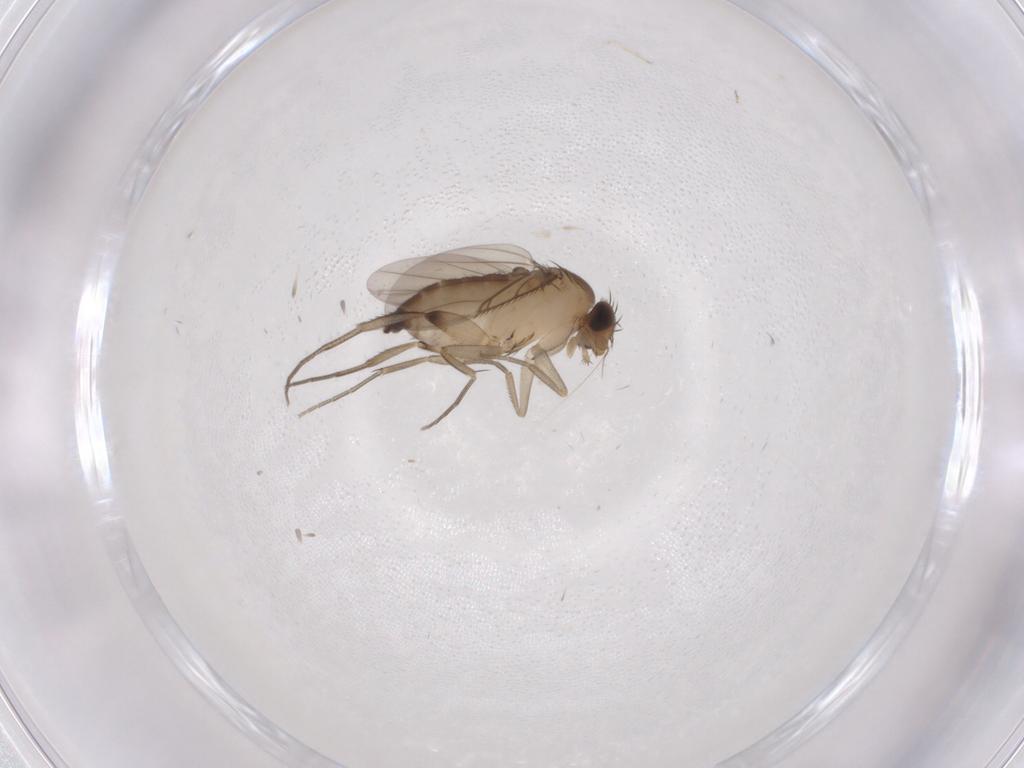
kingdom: Animalia
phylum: Arthropoda
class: Insecta
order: Diptera
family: Phoridae
